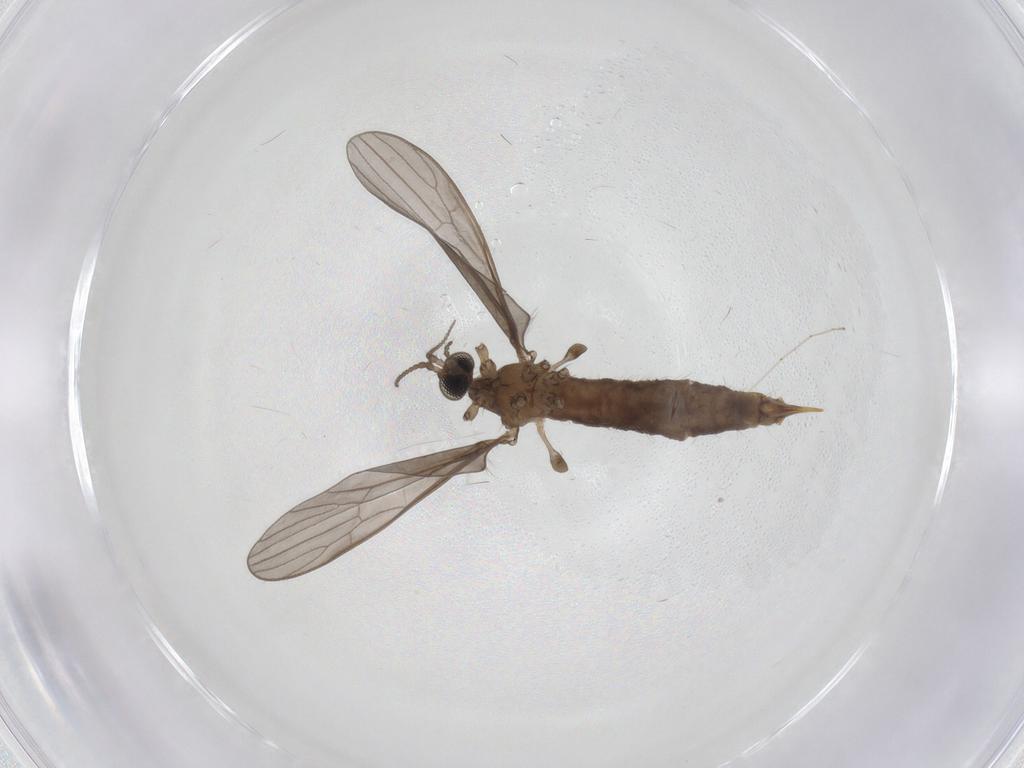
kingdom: Animalia
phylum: Arthropoda
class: Insecta
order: Diptera
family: Limoniidae
